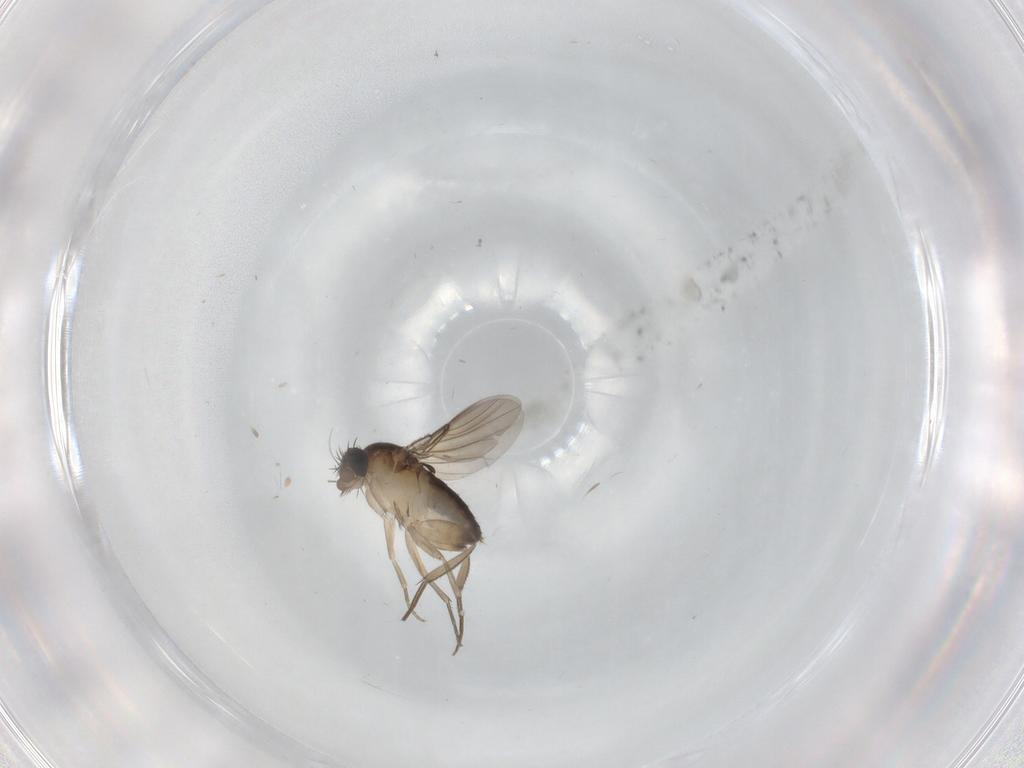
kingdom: Animalia
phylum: Arthropoda
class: Insecta
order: Diptera
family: Phoridae
